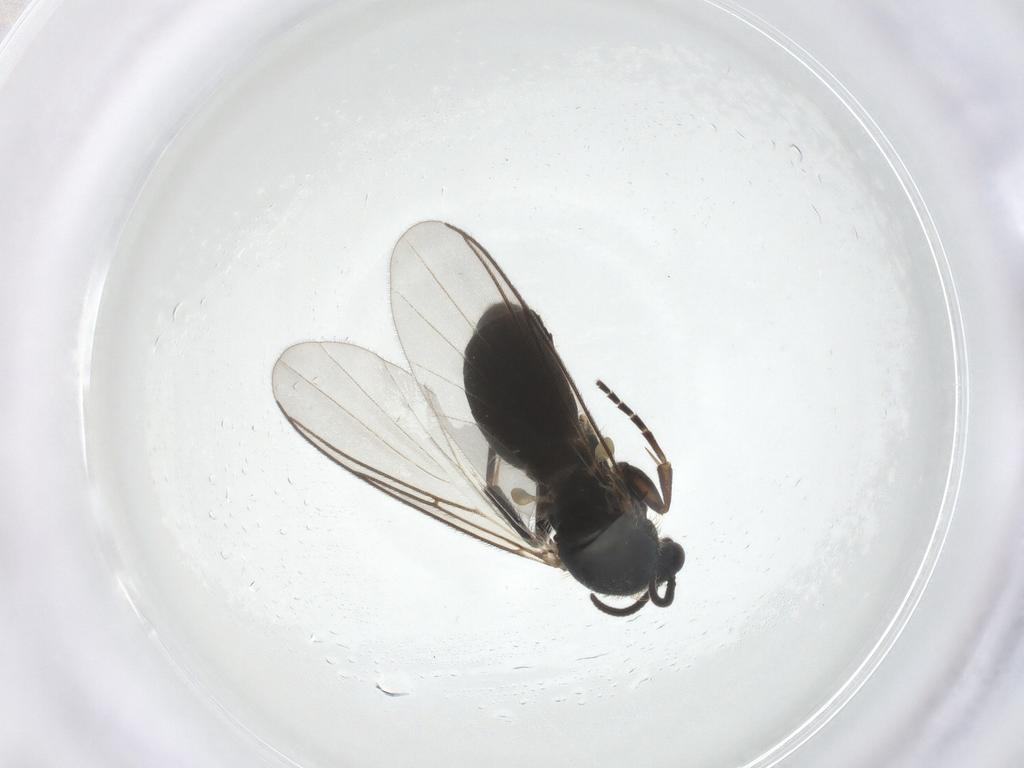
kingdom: Animalia
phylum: Arthropoda
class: Insecta
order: Diptera
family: Mycetophilidae
